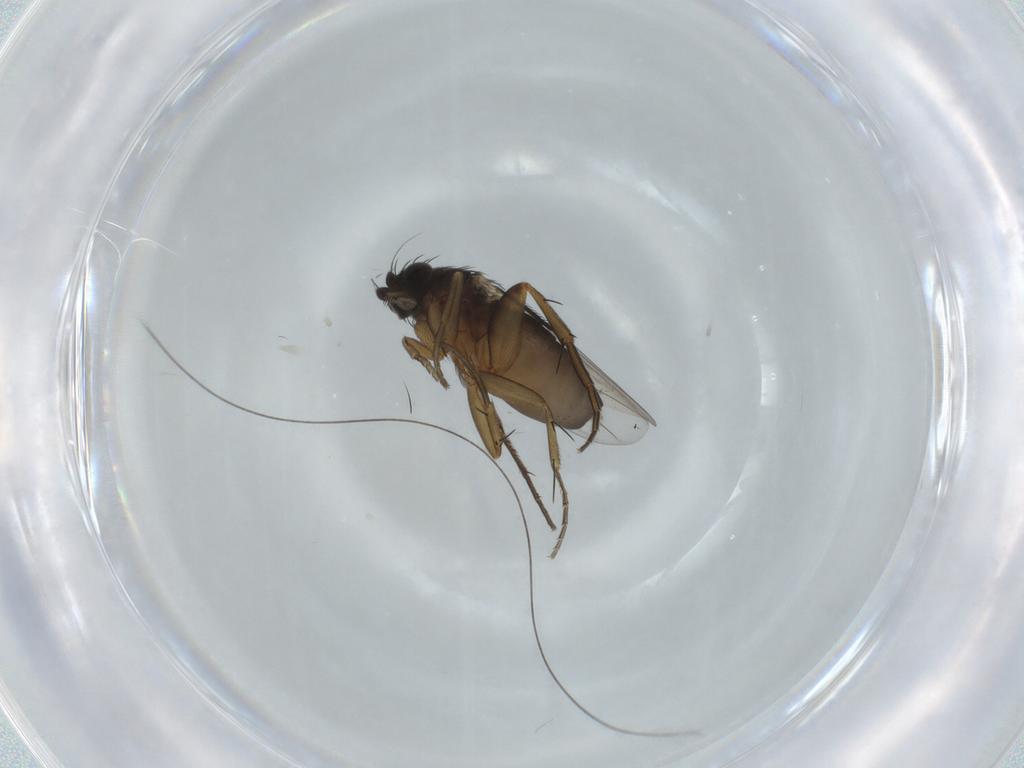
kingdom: Animalia
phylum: Arthropoda
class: Insecta
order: Diptera
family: Phoridae
